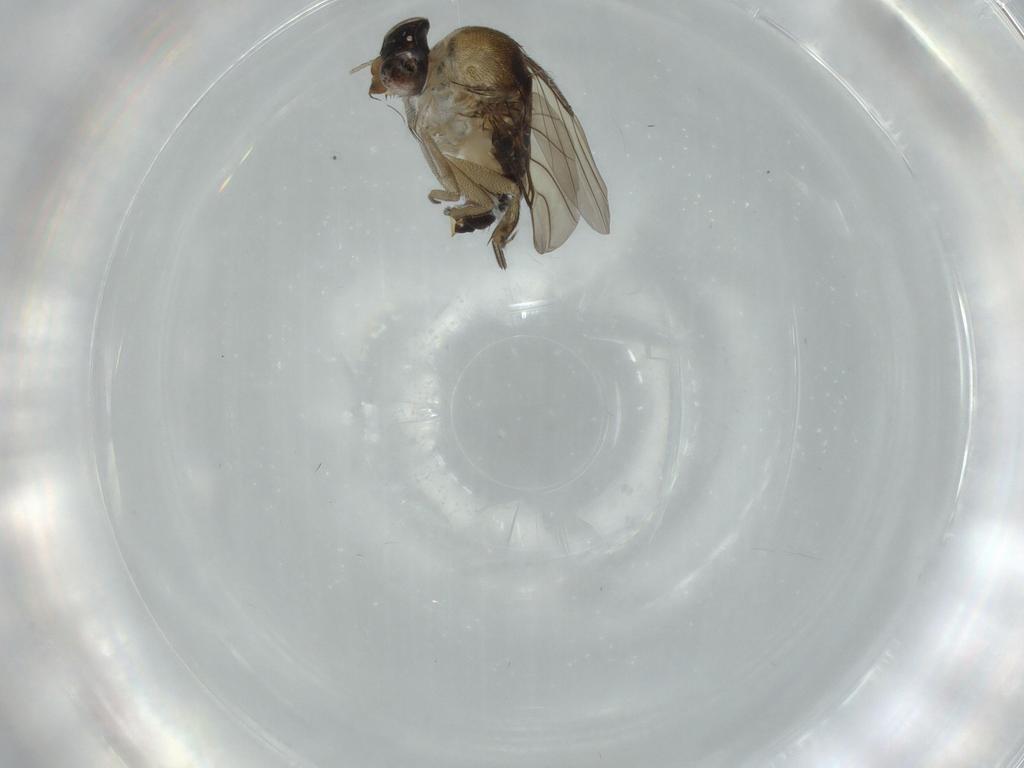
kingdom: Animalia
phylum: Arthropoda
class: Insecta
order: Diptera
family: Phoridae
